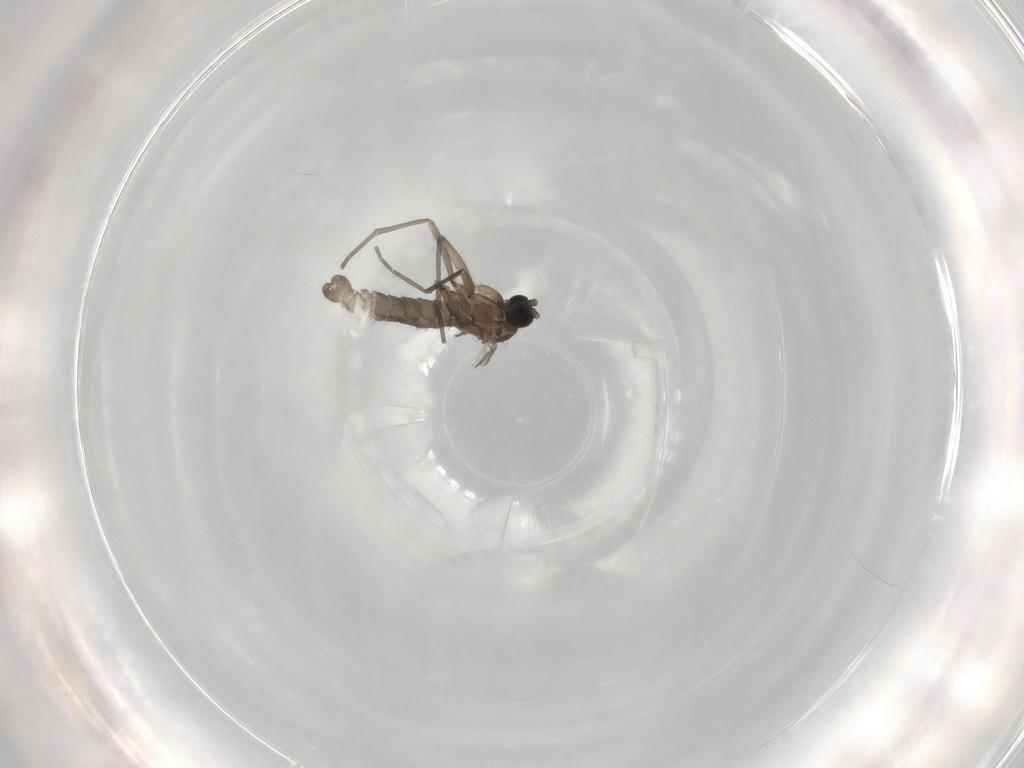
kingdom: Animalia
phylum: Arthropoda
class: Insecta
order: Diptera
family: Sciaridae
